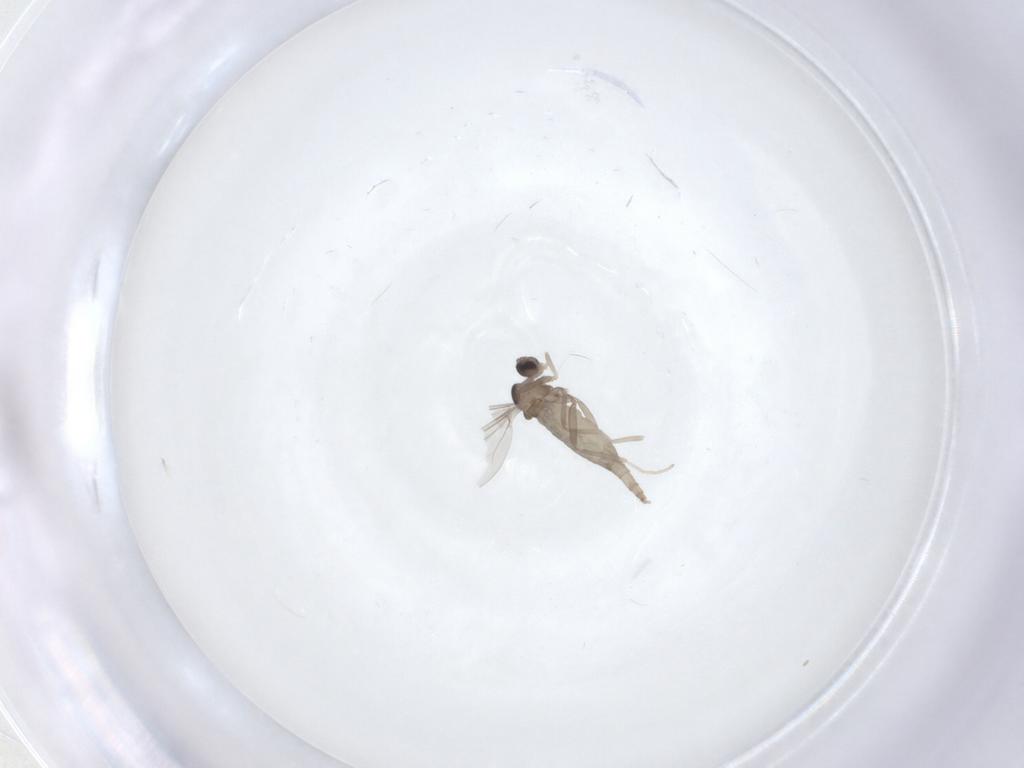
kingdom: Animalia
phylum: Arthropoda
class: Insecta
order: Diptera
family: Cecidomyiidae
